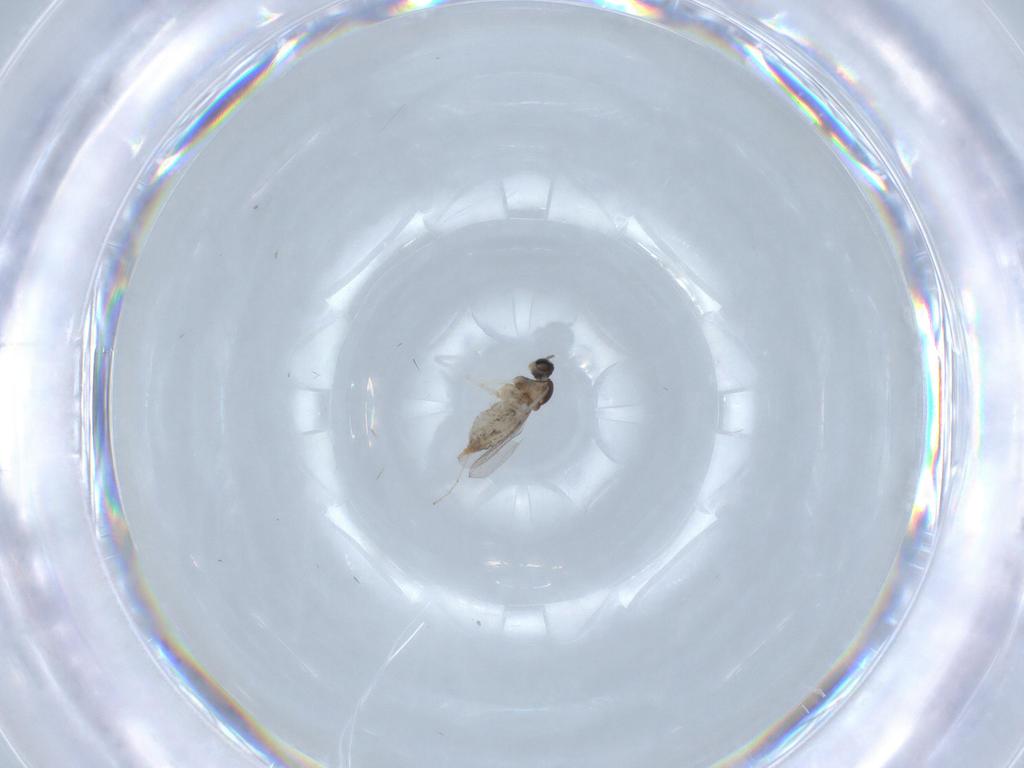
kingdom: Animalia
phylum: Arthropoda
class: Insecta
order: Diptera
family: Cecidomyiidae
